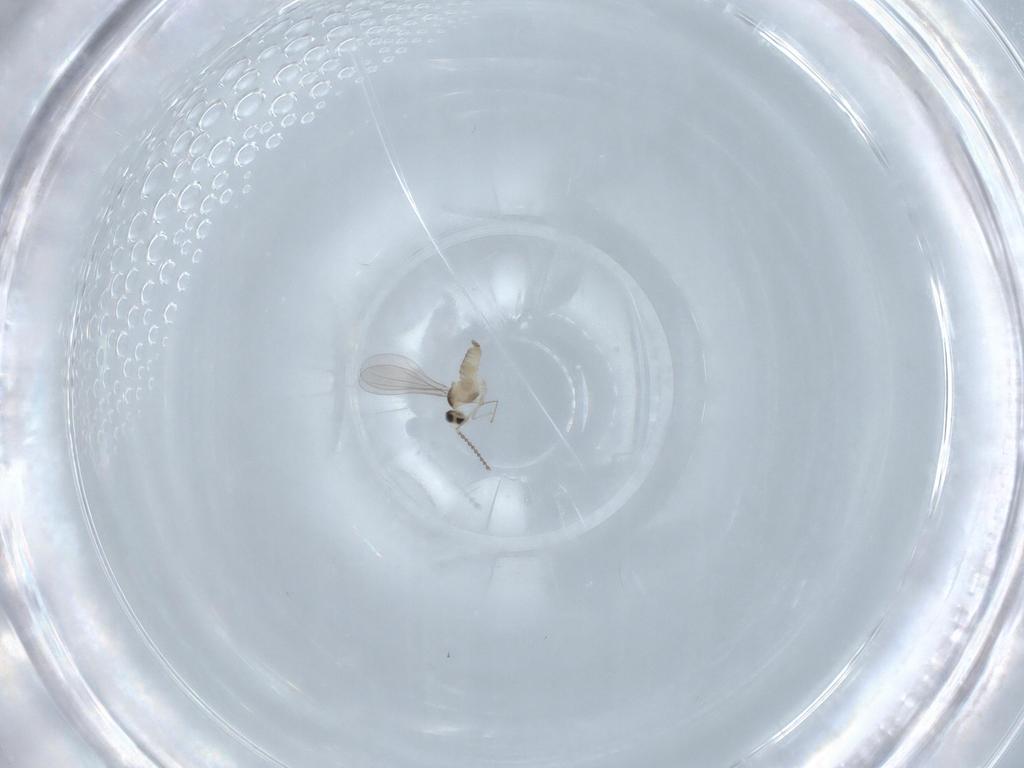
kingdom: Animalia
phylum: Arthropoda
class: Insecta
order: Diptera
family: Cecidomyiidae
